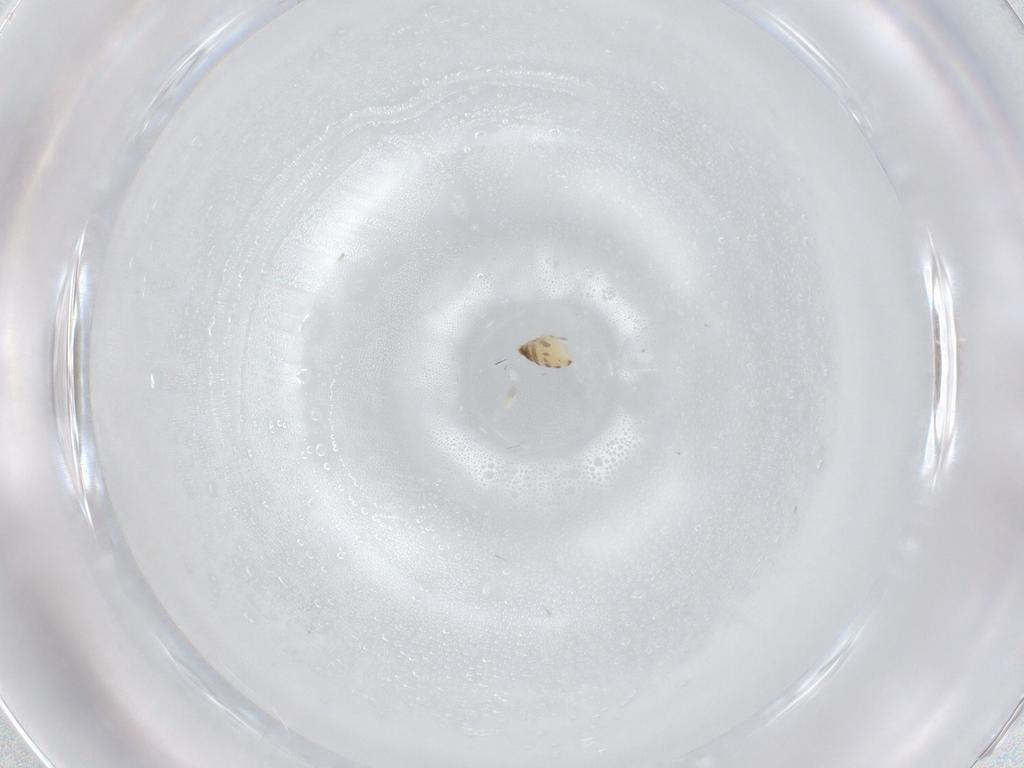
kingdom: Animalia
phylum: Arthropoda
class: Insecta
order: Diptera
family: Cecidomyiidae
